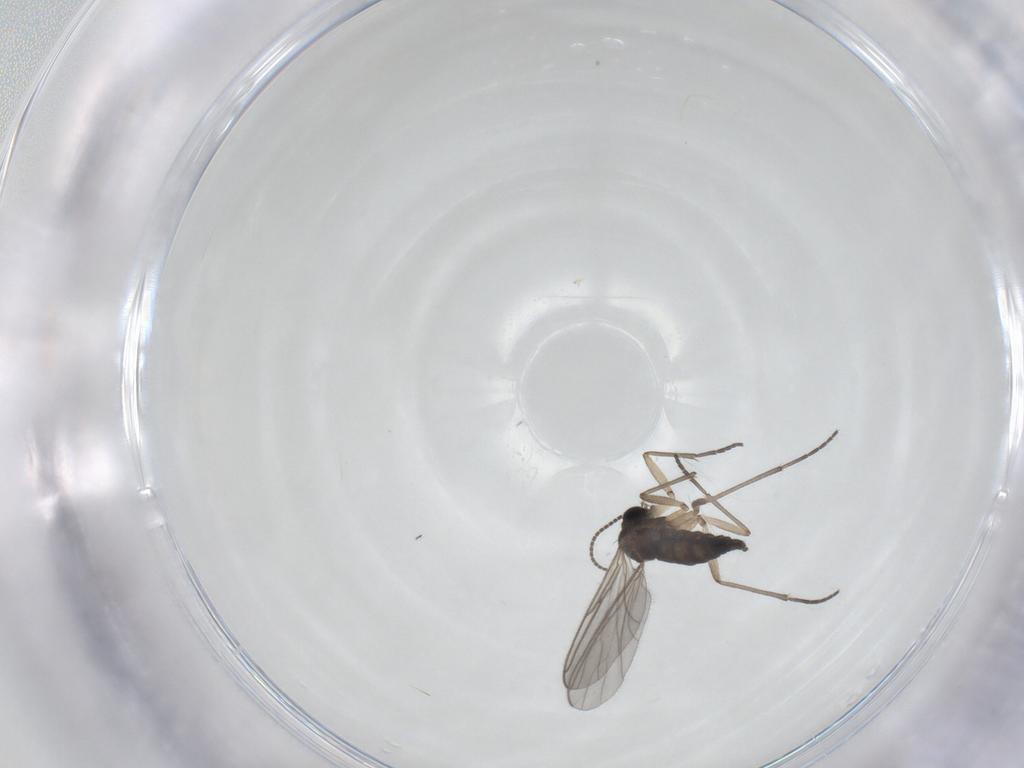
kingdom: Animalia
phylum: Arthropoda
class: Insecta
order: Diptera
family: Sciaridae
